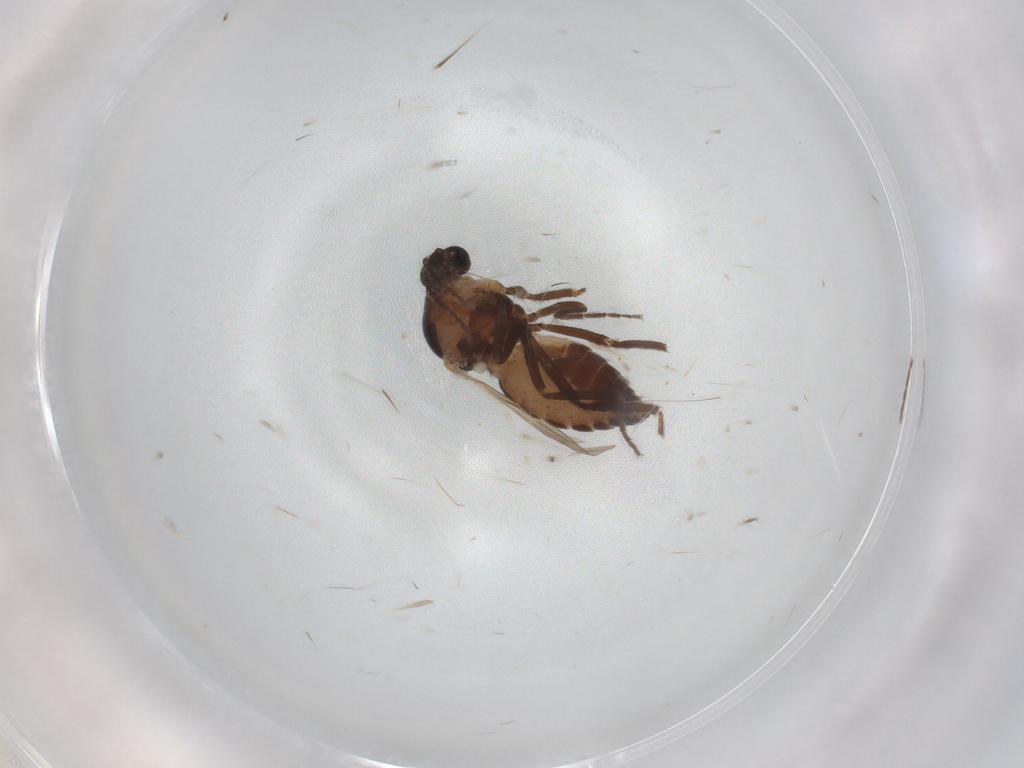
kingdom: Animalia
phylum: Arthropoda
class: Insecta
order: Diptera
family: Ceratopogonidae
